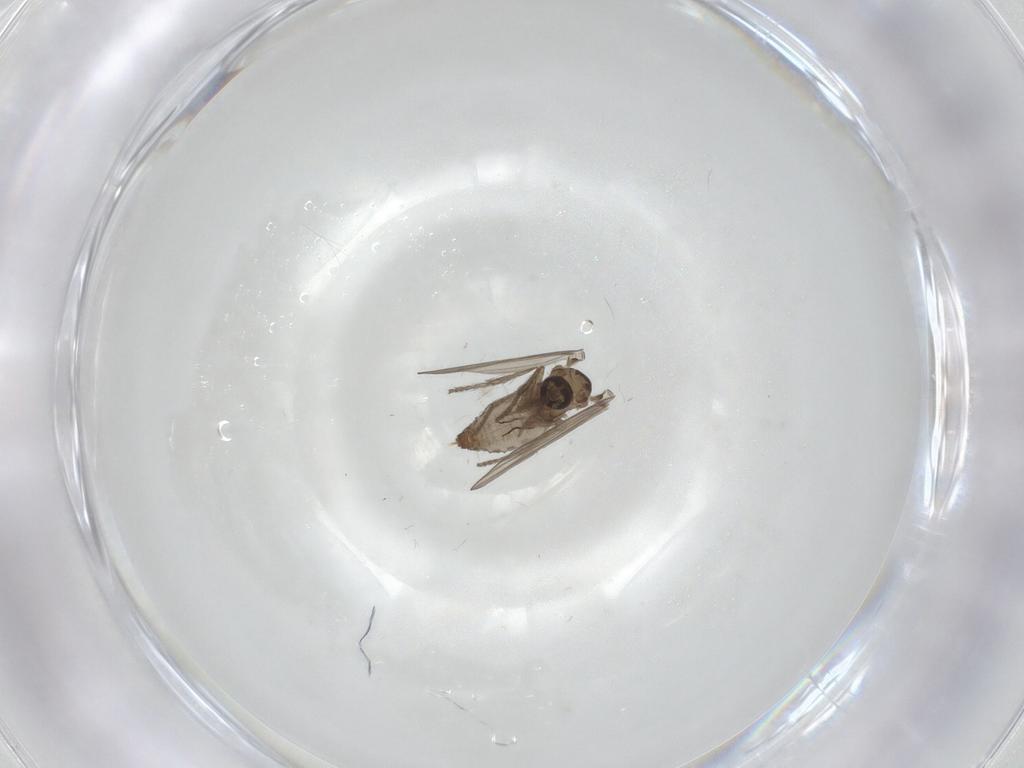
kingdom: Animalia
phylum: Arthropoda
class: Insecta
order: Diptera
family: Psychodidae
